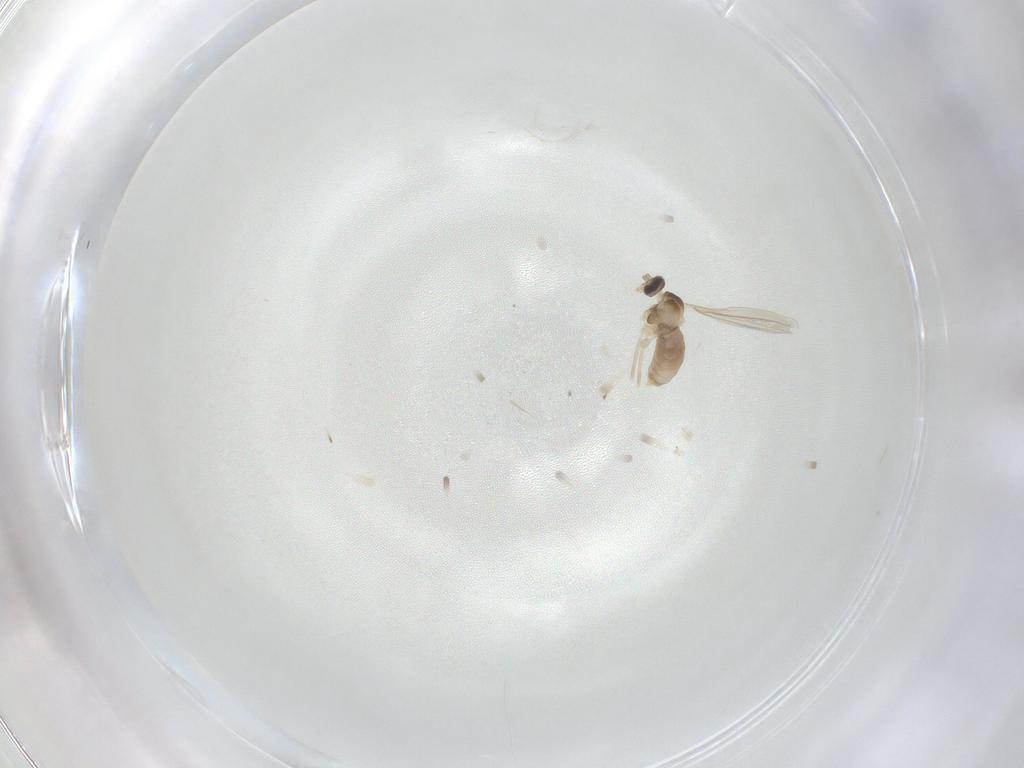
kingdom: Animalia
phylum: Arthropoda
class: Insecta
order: Diptera
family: Cecidomyiidae
